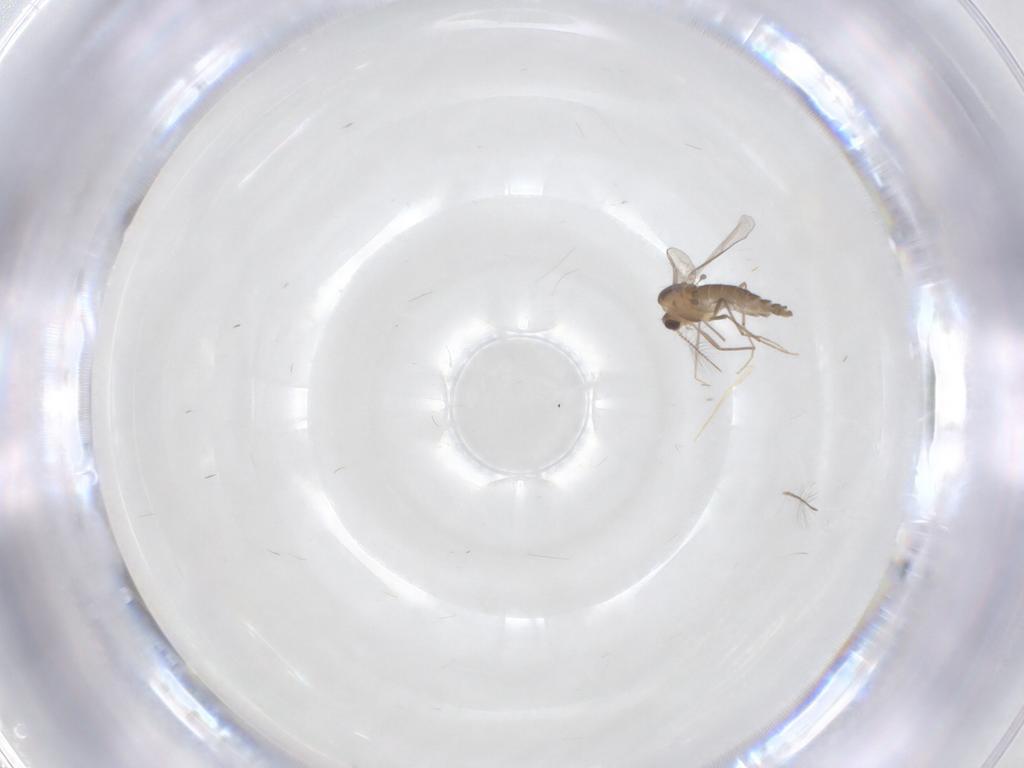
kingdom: Animalia
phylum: Arthropoda
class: Insecta
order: Diptera
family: Chironomidae
